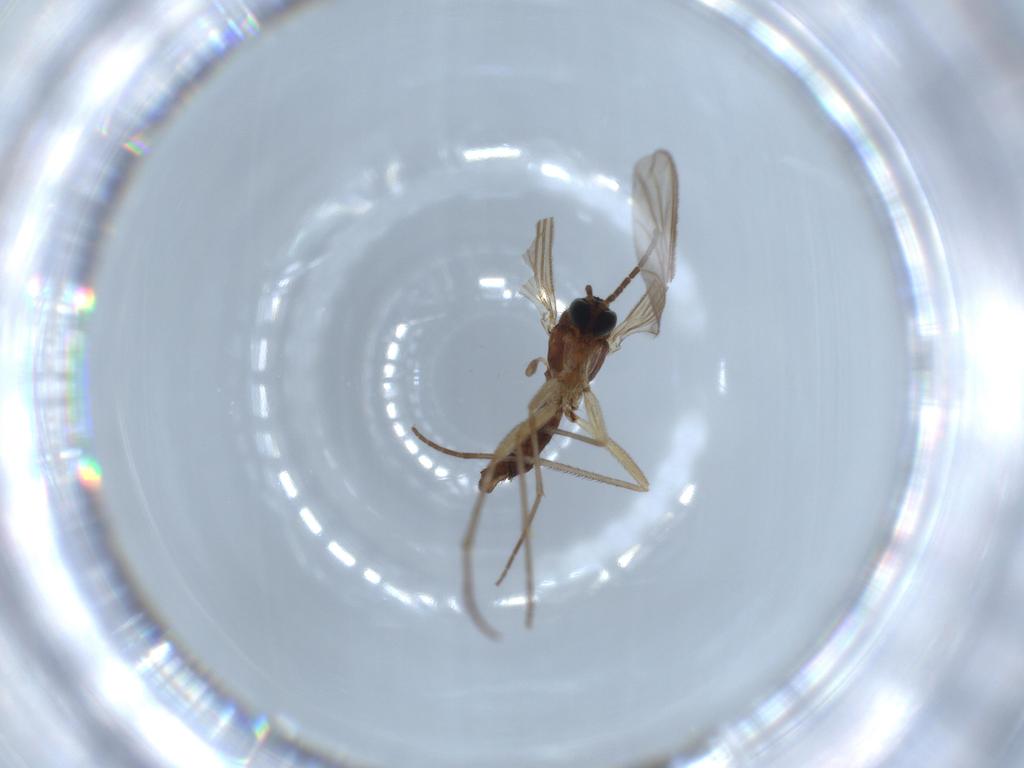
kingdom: Animalia
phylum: Arthropoda
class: Insecta
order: Diptera
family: Sciaridae
